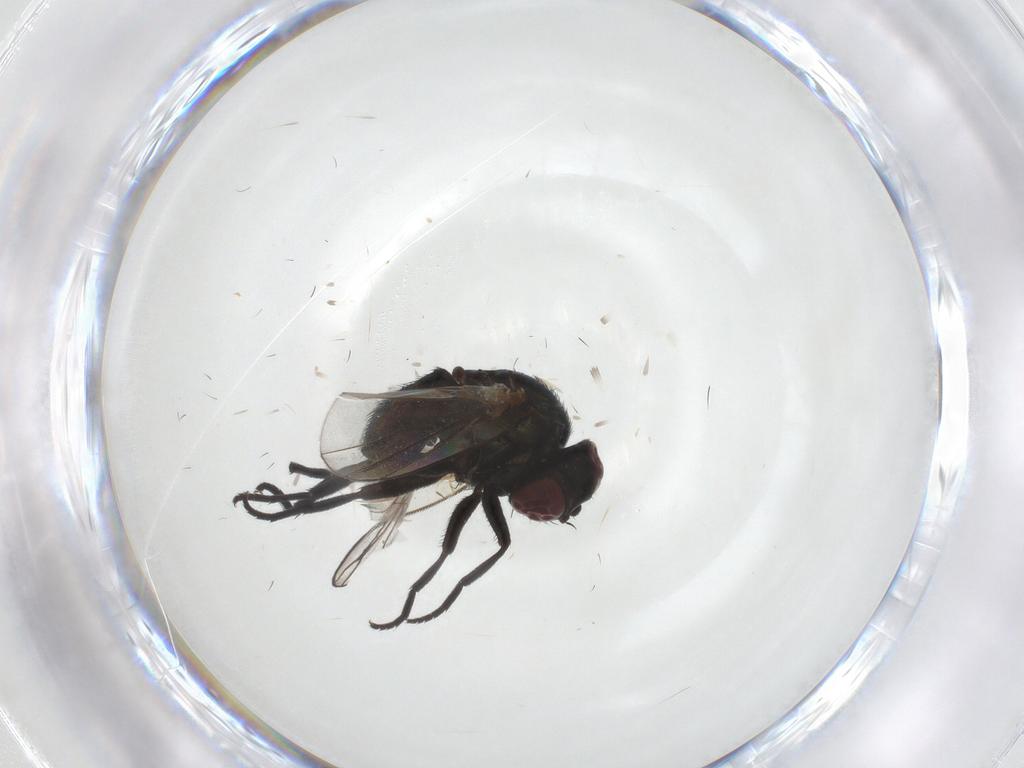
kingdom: Animalia
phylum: Arthropoda
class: Insecta
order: Diptera
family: Agromyzidae
